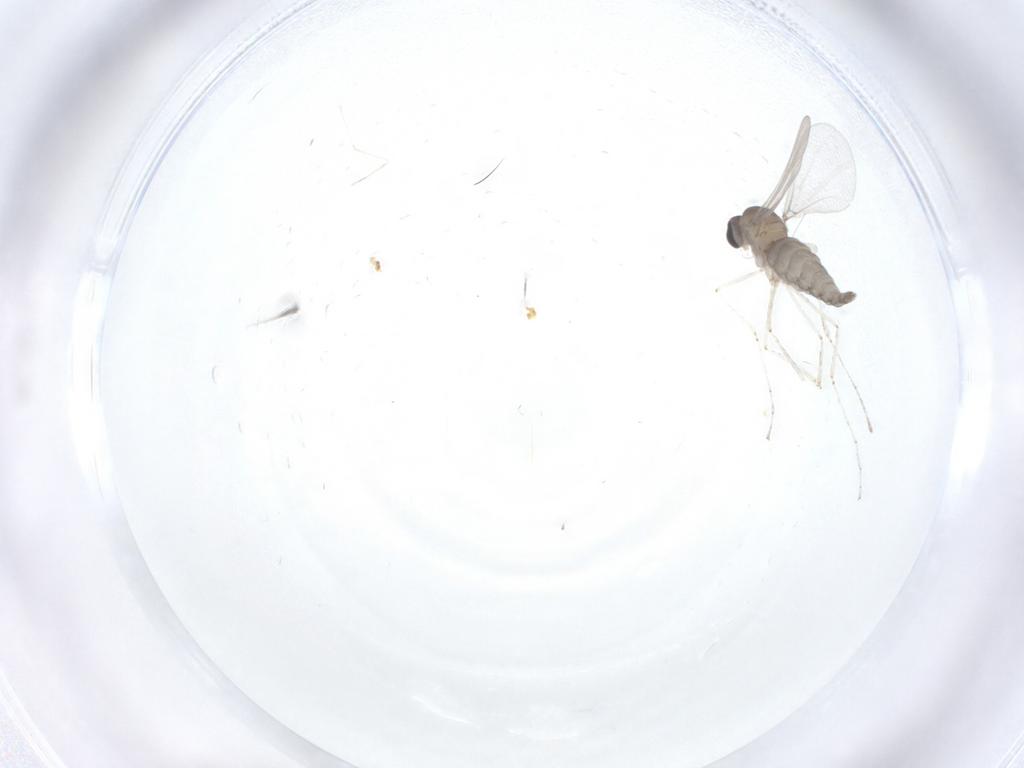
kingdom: Animalia
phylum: Arthropoda
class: Insecta
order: Diptera
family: Cecidomyiidae
